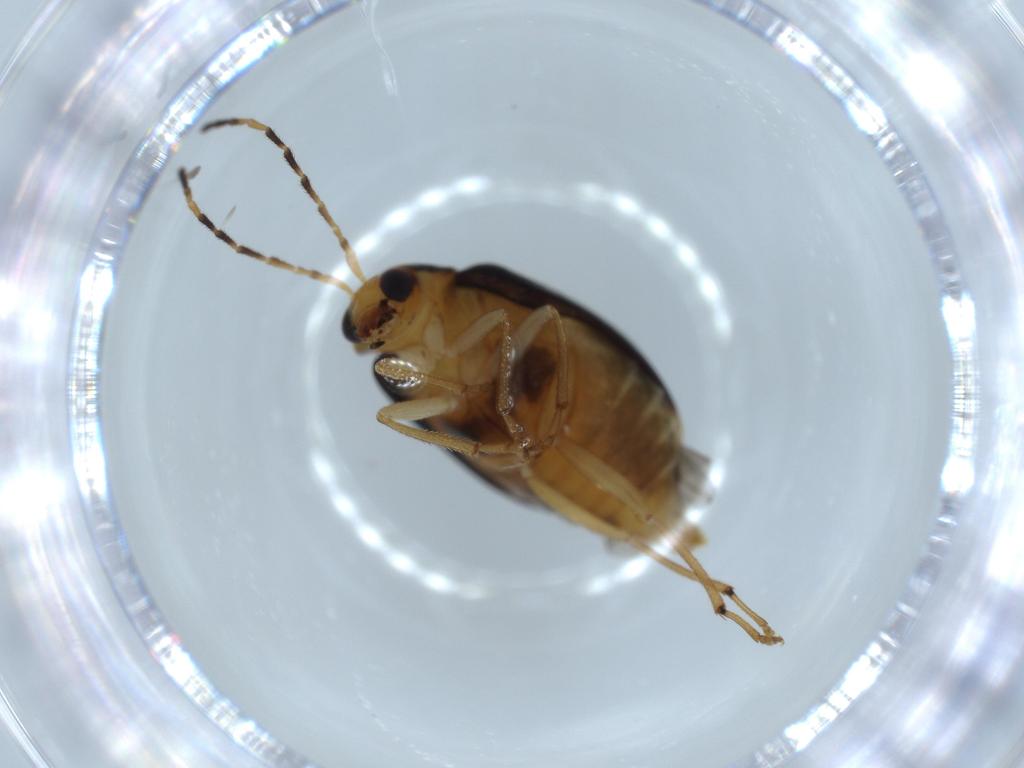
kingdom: Animalia
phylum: Arthropoda
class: Insecta
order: Coleoptera
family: Chrysomelidae
